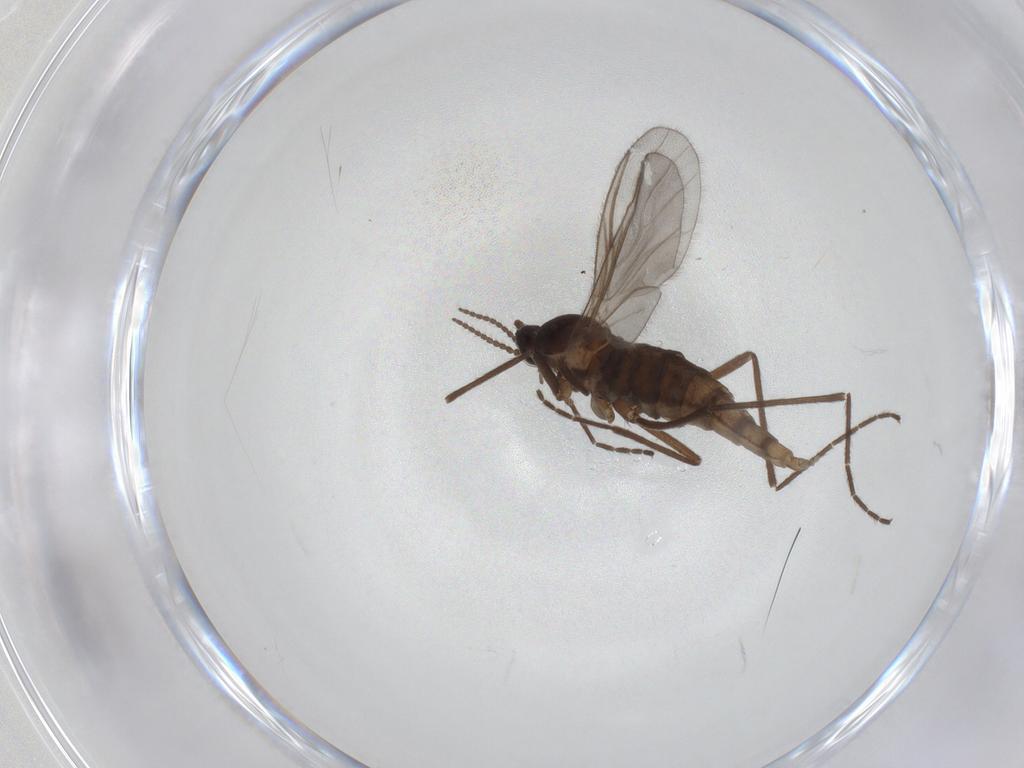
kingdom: Animalia
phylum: Arthropoda
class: Insecta
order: Diptera
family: Cecidomyiidae
